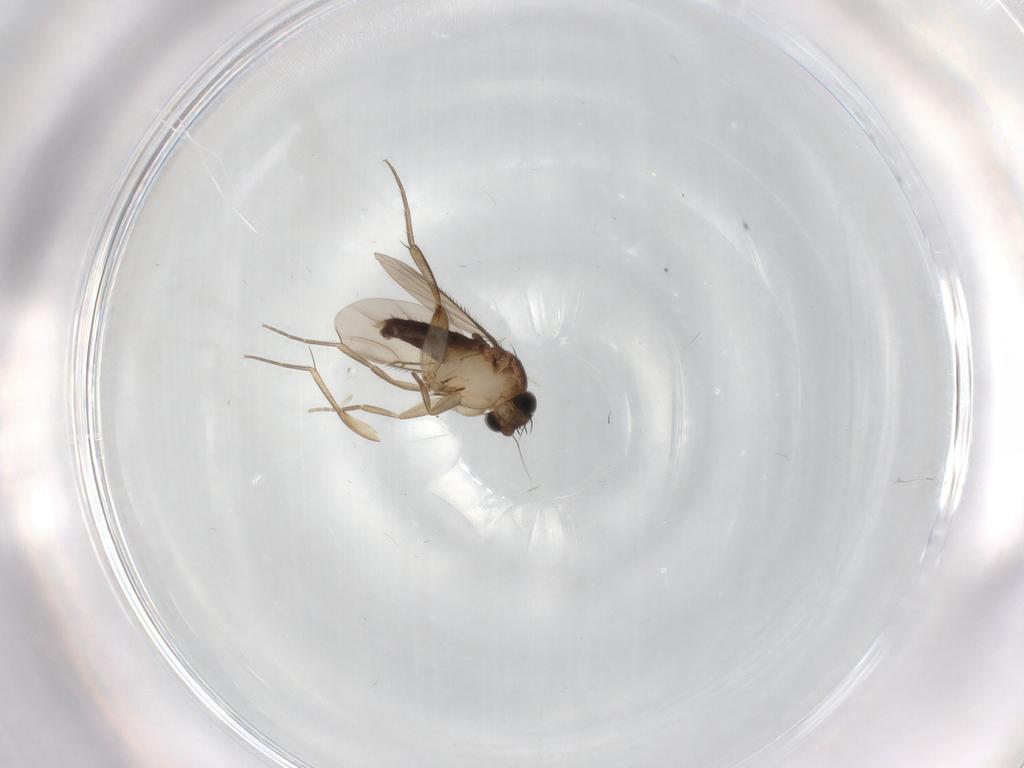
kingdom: Animalia
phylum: Arthropoda
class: Insecta
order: Diptera
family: Phoridae
